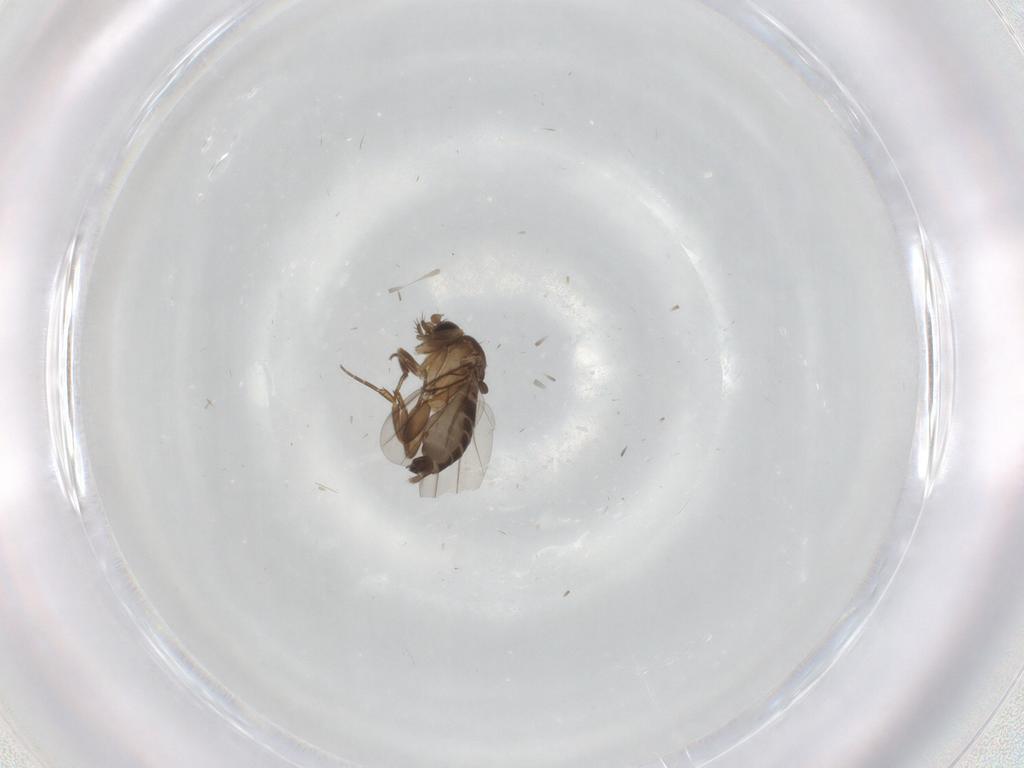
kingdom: Animalia
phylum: Arthropoda
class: Insecta
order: Diptera
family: Phoridae
